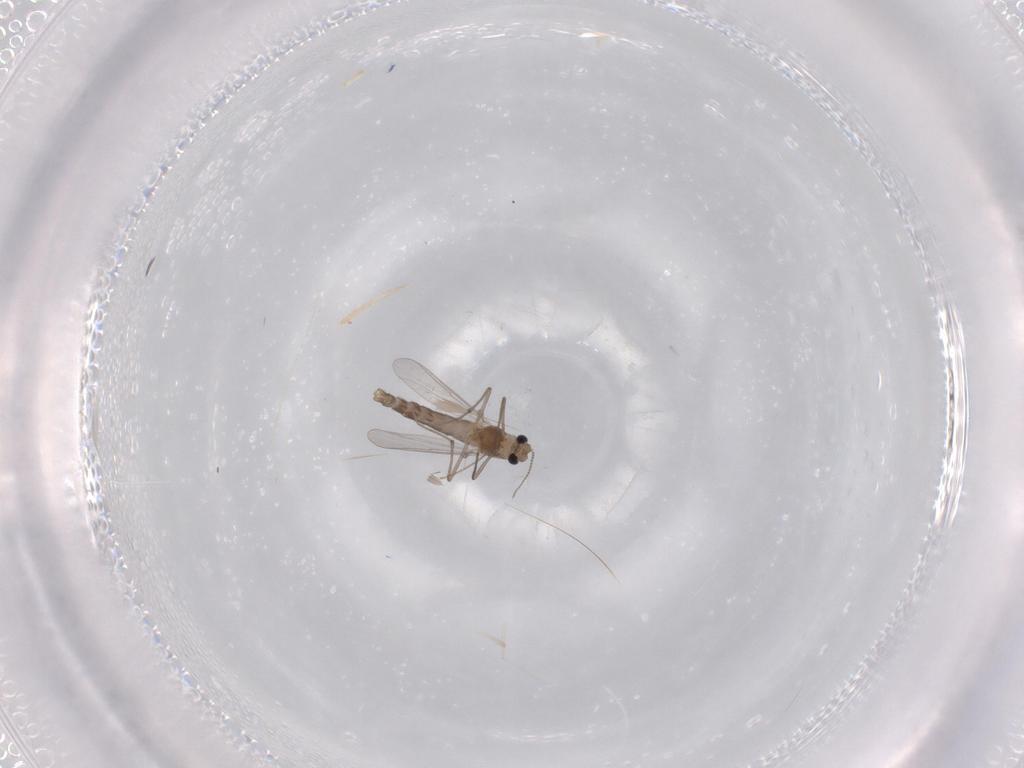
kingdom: Animalia
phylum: Arthropoda
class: Insecta
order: Diptera
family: Chironomidae
